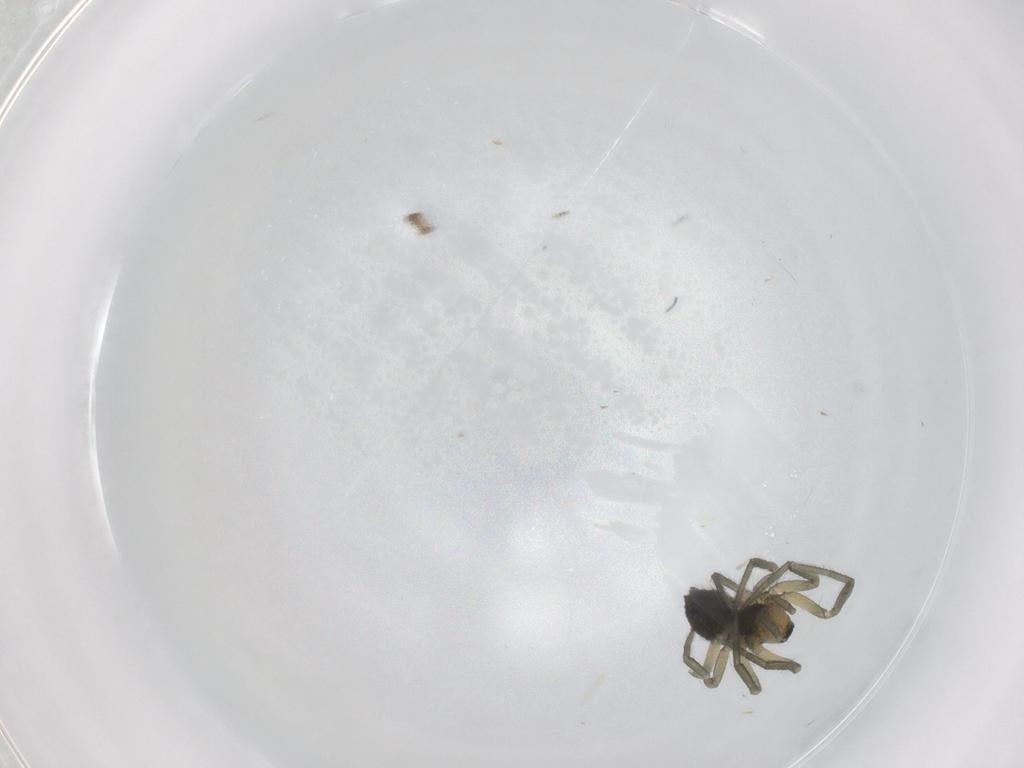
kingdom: Animalia
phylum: Arthropoda
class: Arachnida
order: Araneae
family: Linyphiidae
